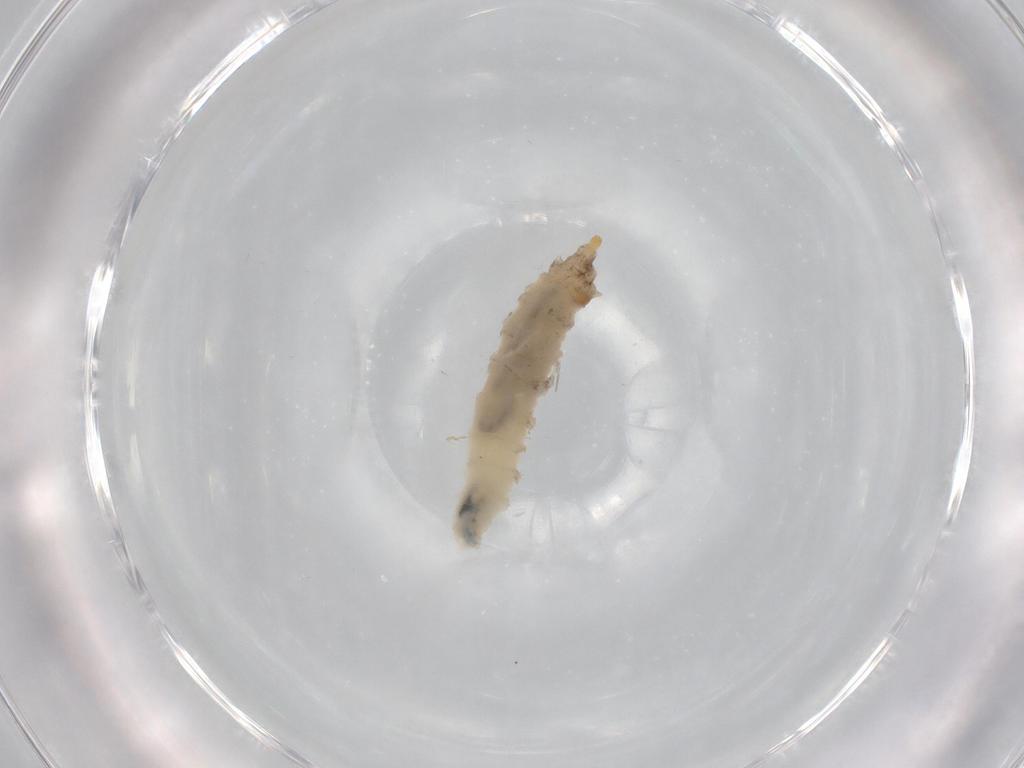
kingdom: Animalia
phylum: Arthropoda
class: Insecta
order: Diptera
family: Drosophilidae
